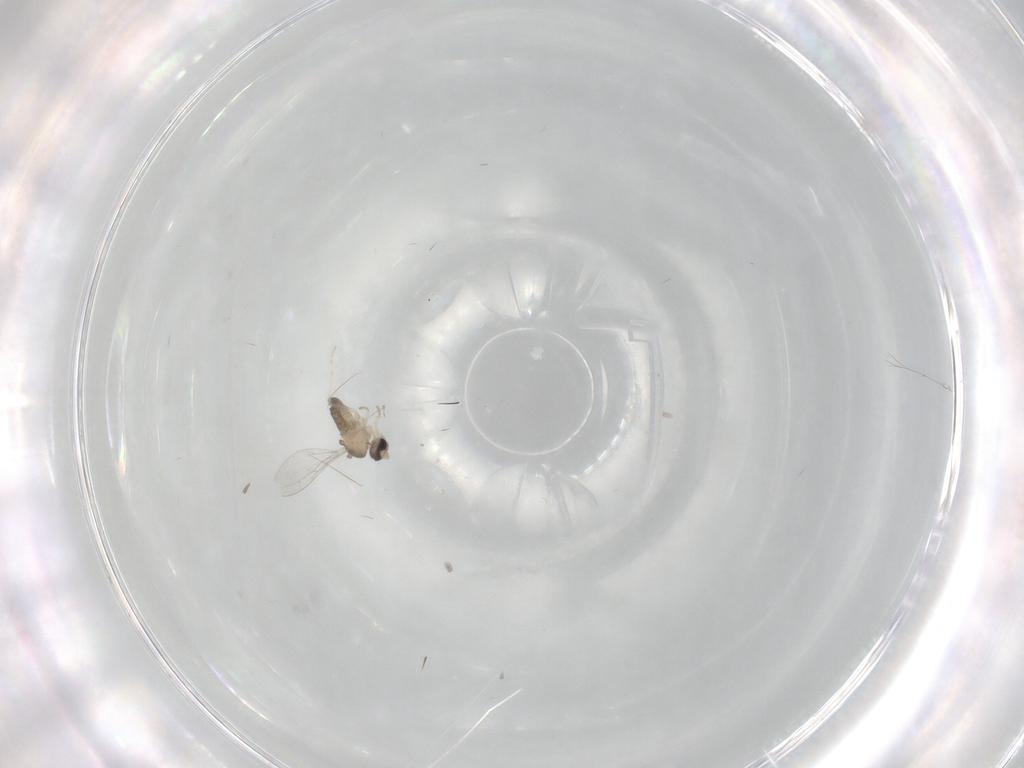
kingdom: Animalia
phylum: Arthropoda
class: Insecta
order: Diptera
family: Cecidomyiidae
